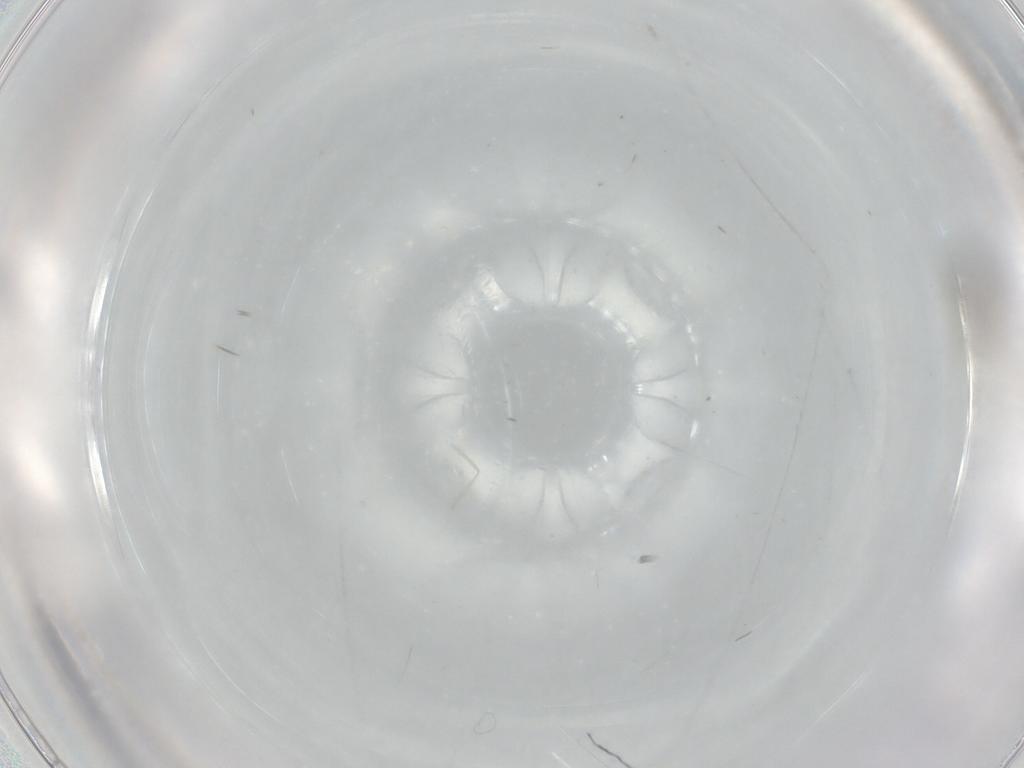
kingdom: Animalia
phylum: Arthropoda
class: Insecta
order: Diptera
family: Cecidomyiidae
